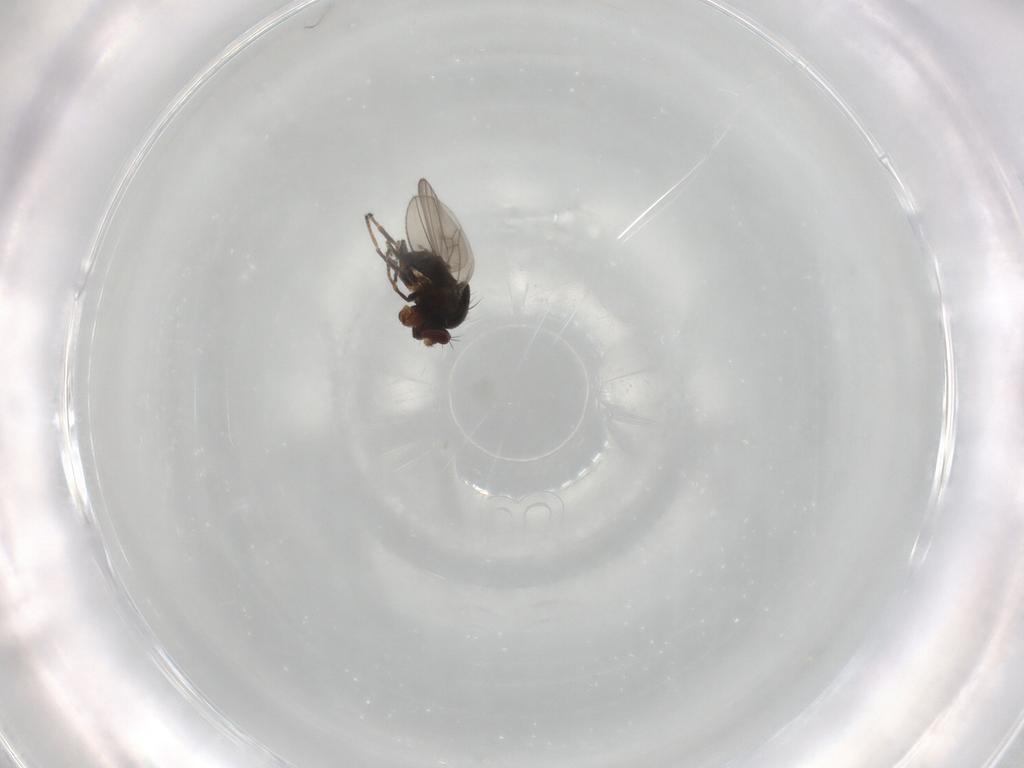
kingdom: Animalia
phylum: Arthropoda
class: Insecta
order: Diptera
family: Ephydridae
